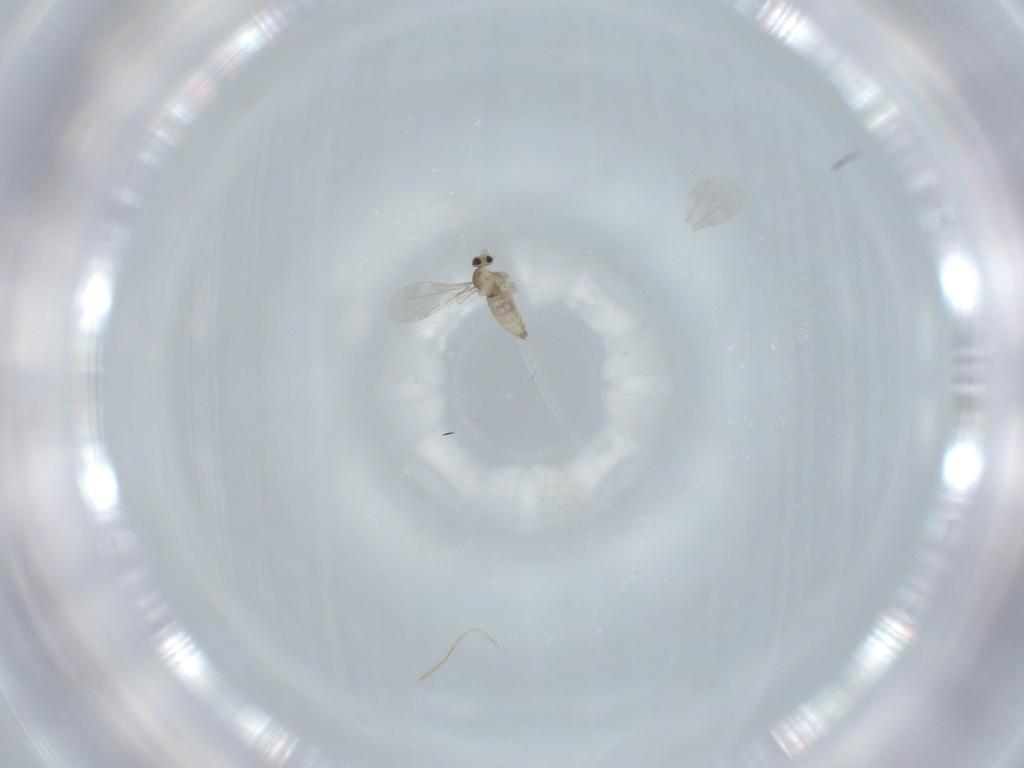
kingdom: Animalia
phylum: Arthropoda
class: Insecta
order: Diptera
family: Cecidomyiidae
